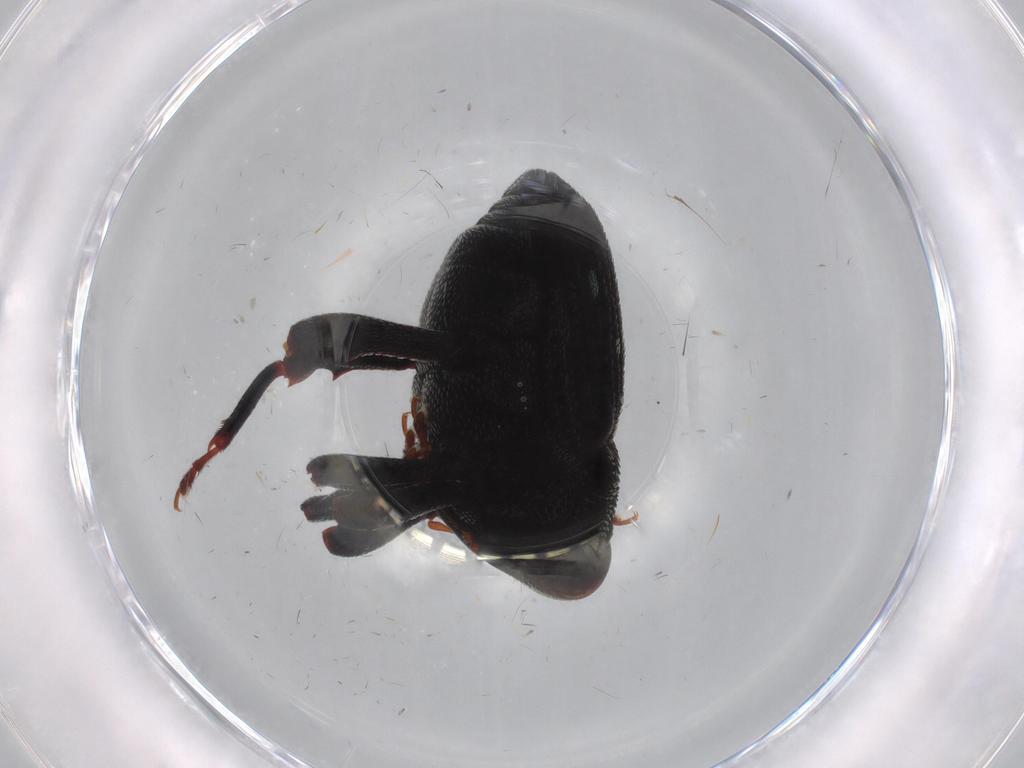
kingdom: Animalia
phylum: Arthropoda
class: Insecta
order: Coleoptera
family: Curculionidae
